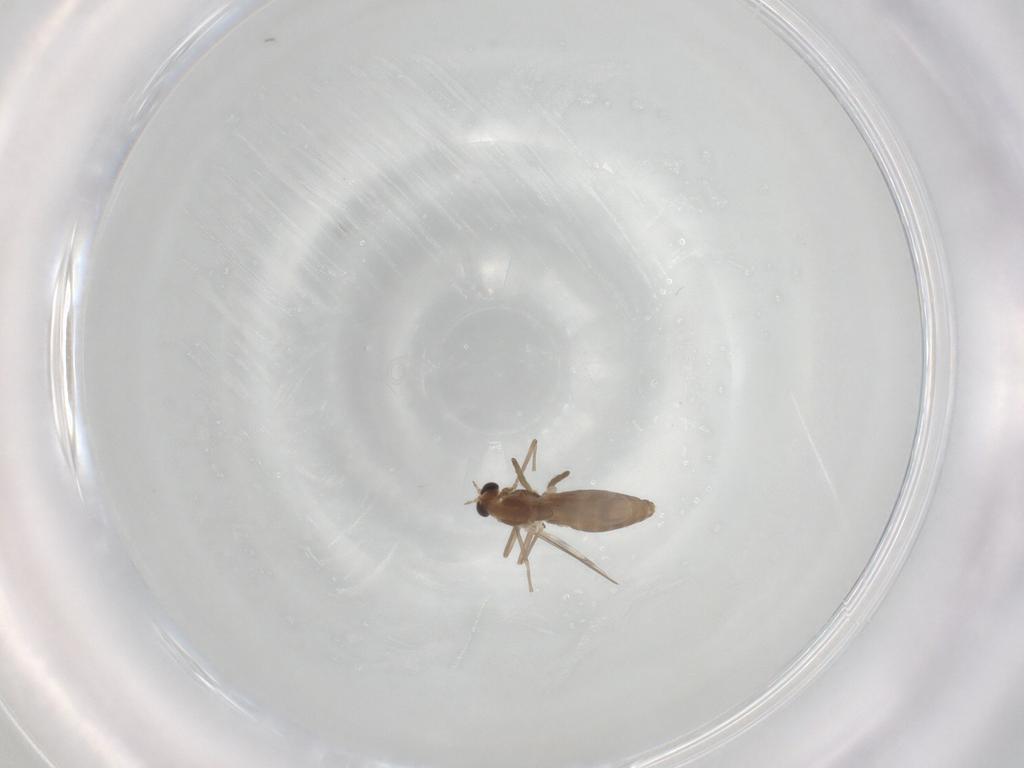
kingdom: Animalia
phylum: Arthropoda
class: Insecta
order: Diptera
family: Chironomidae
